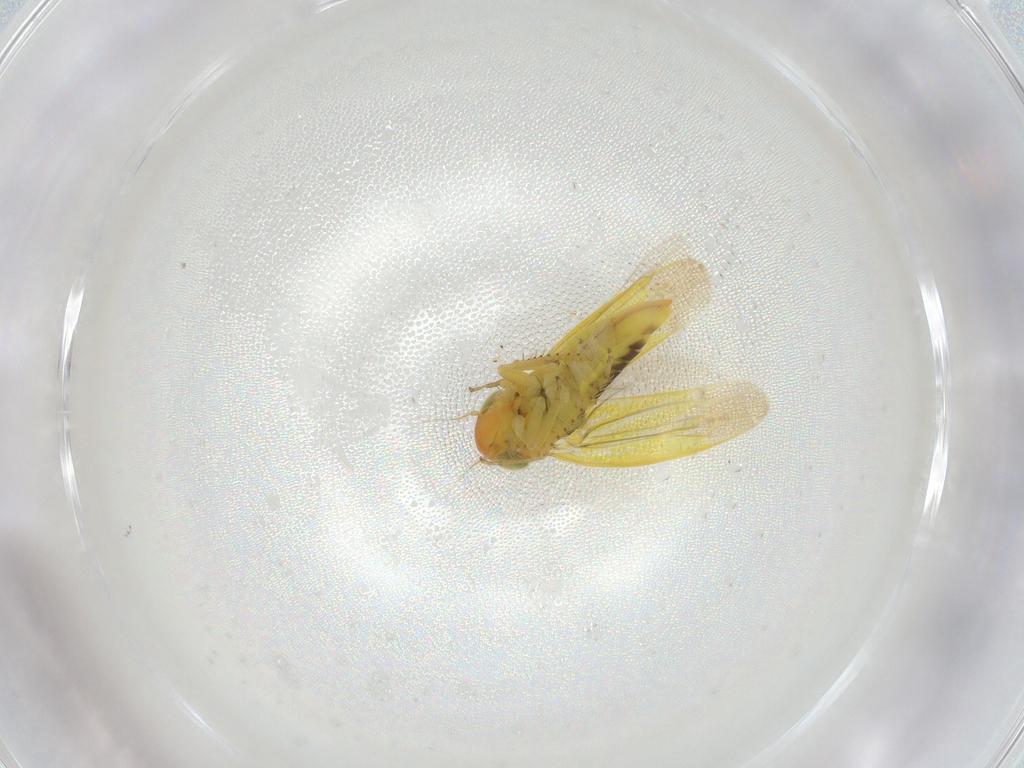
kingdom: Animalia
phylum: Arthropoda
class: Insecta
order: Hemiptera
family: Cicadellidae
